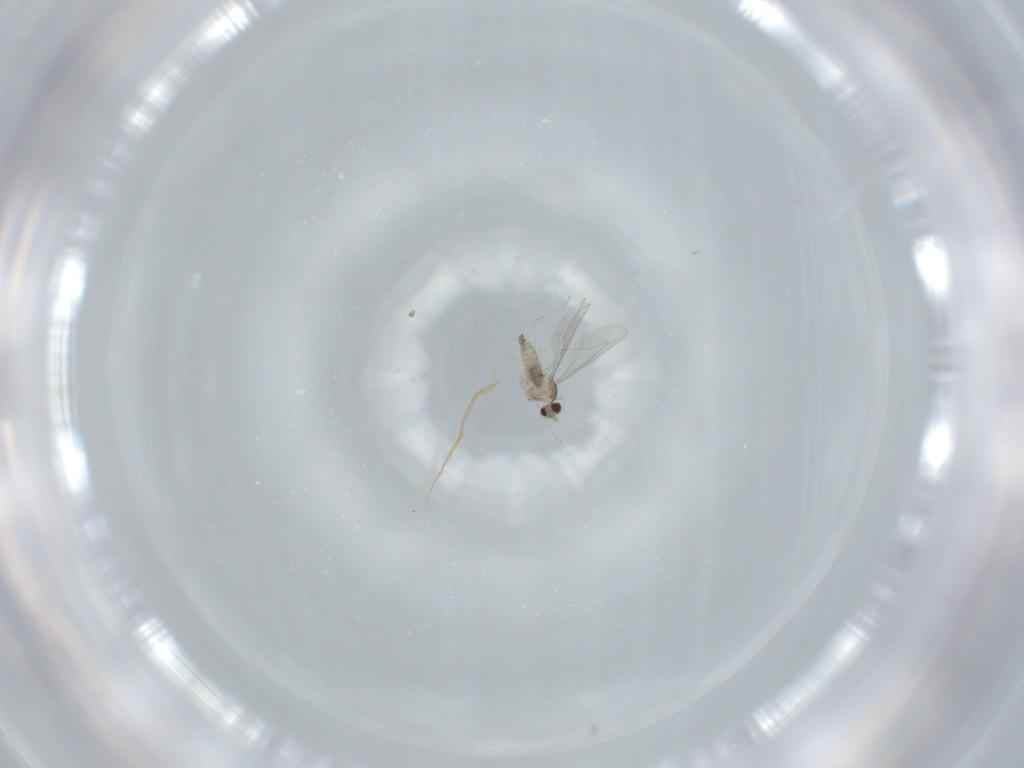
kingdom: Animalia
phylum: Arthropoda
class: Insecta
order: Diptera
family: Cecidomyiidae
